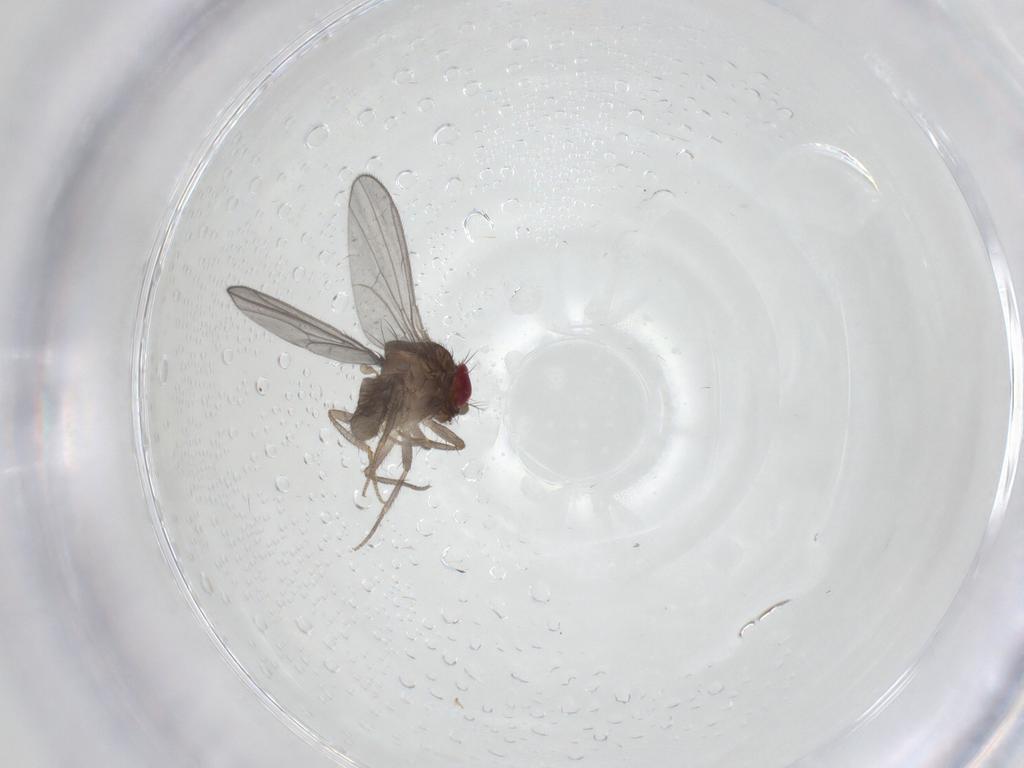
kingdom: Animalia
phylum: Arthropoda
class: Insecta
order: Diptera
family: Drosophilidae
